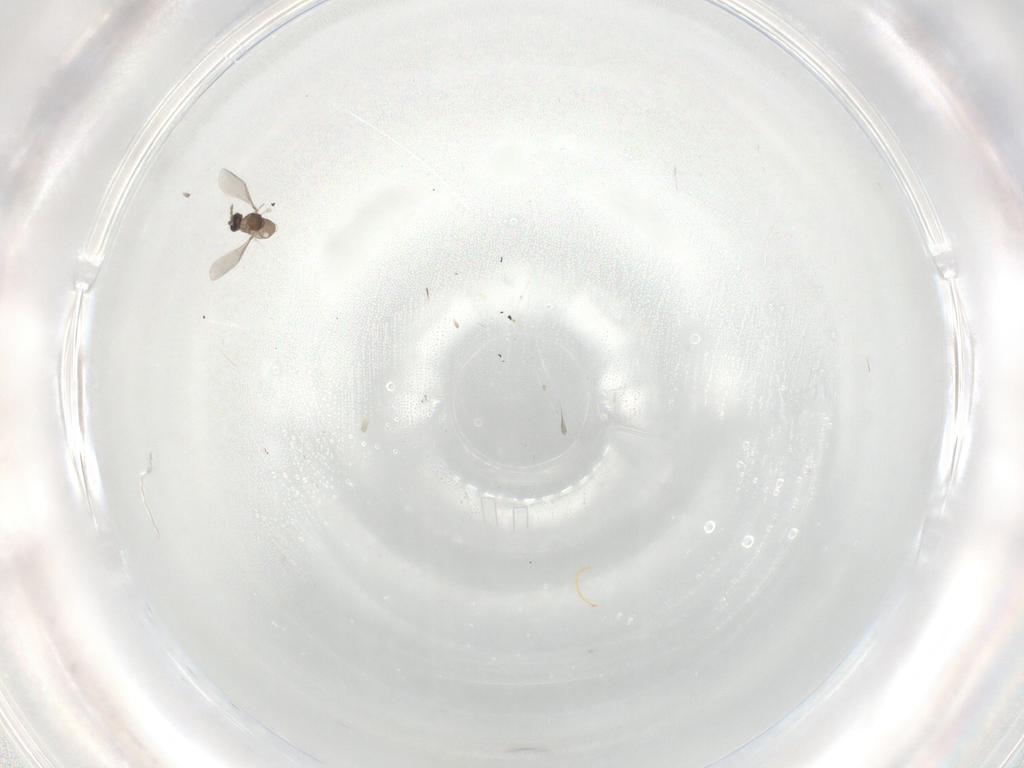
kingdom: Animalia
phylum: Arthropoda
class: Insecta
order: Diptera
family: Cecidomyiidae
